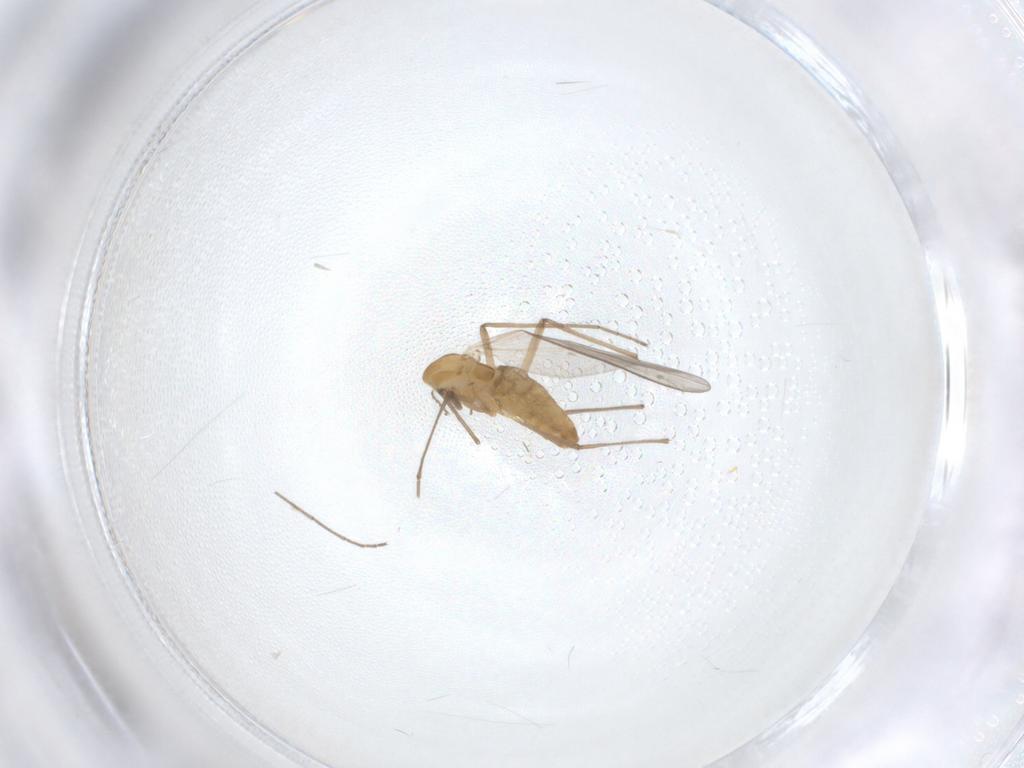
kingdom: Animalia
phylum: Arthropoda
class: Insecta
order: Diptera
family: Chironomidae
